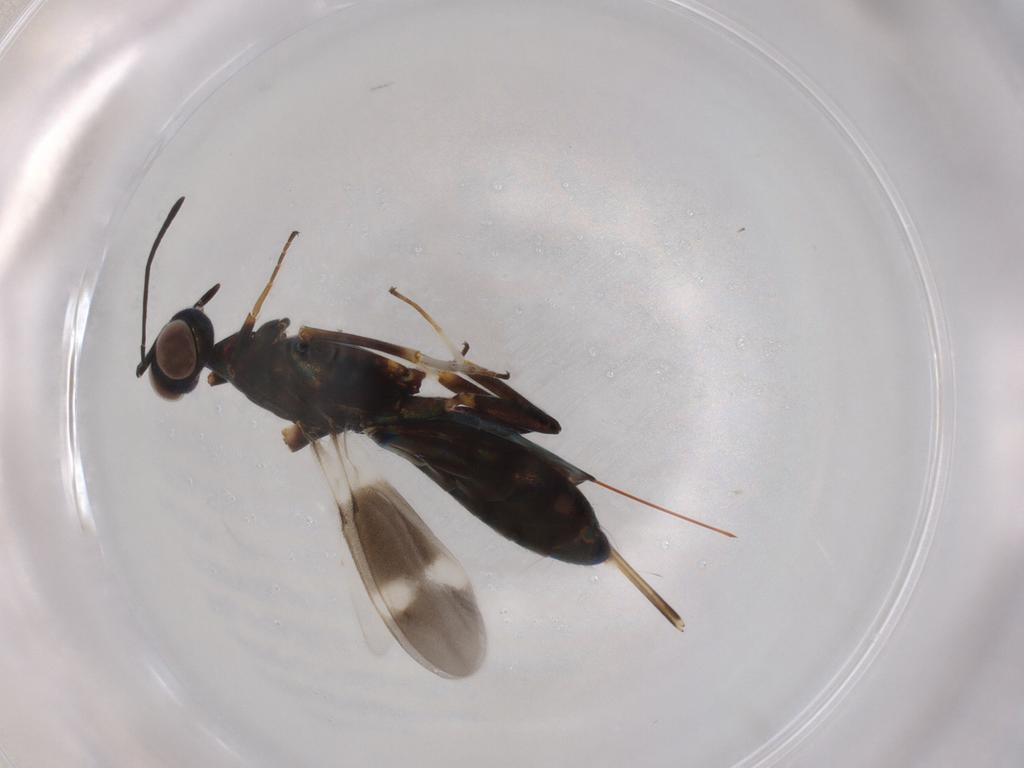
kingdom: Animalia
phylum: Arthropoda
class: Insecta
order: Hymenoptera
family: Eupelmidae
